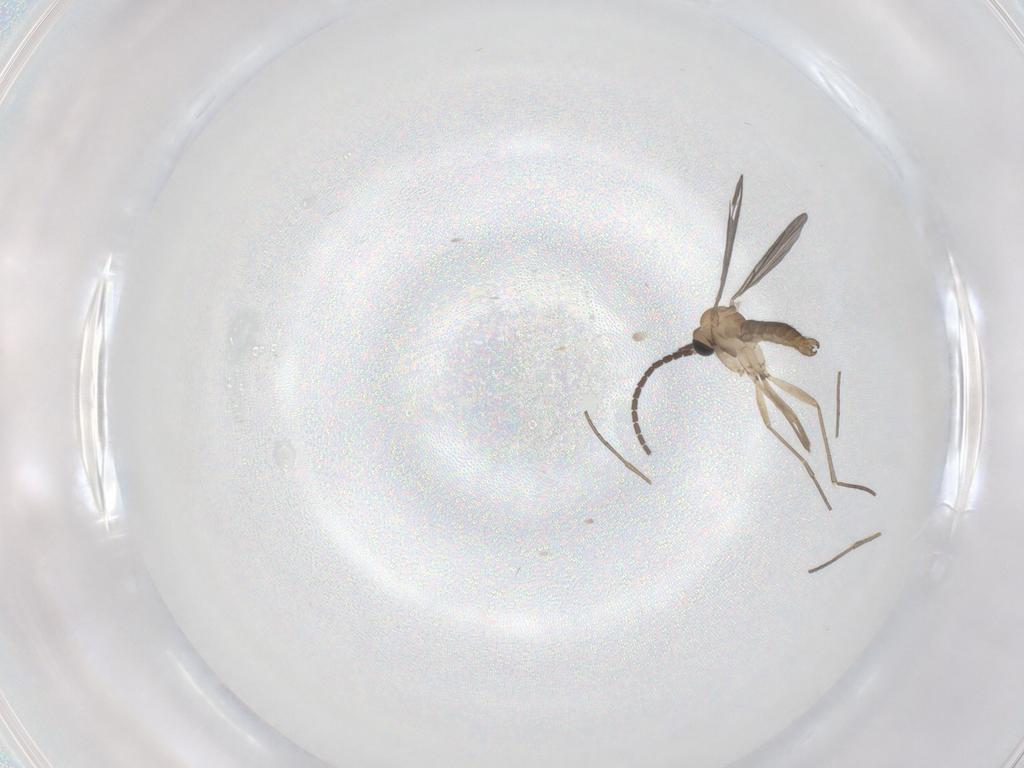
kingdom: Animalia
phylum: Arthropoda
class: Insecta
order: Diptera
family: Sciaridae
